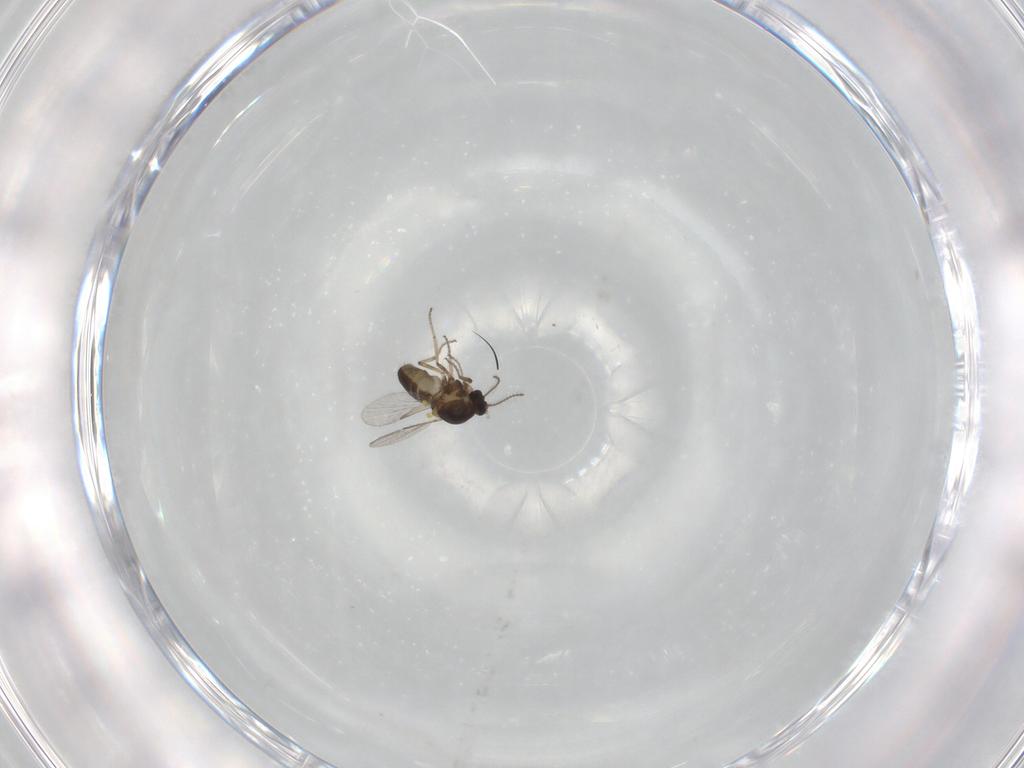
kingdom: Animalia
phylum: Arthropoda
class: Insecta
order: Diptera
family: Ceratopogonidae
